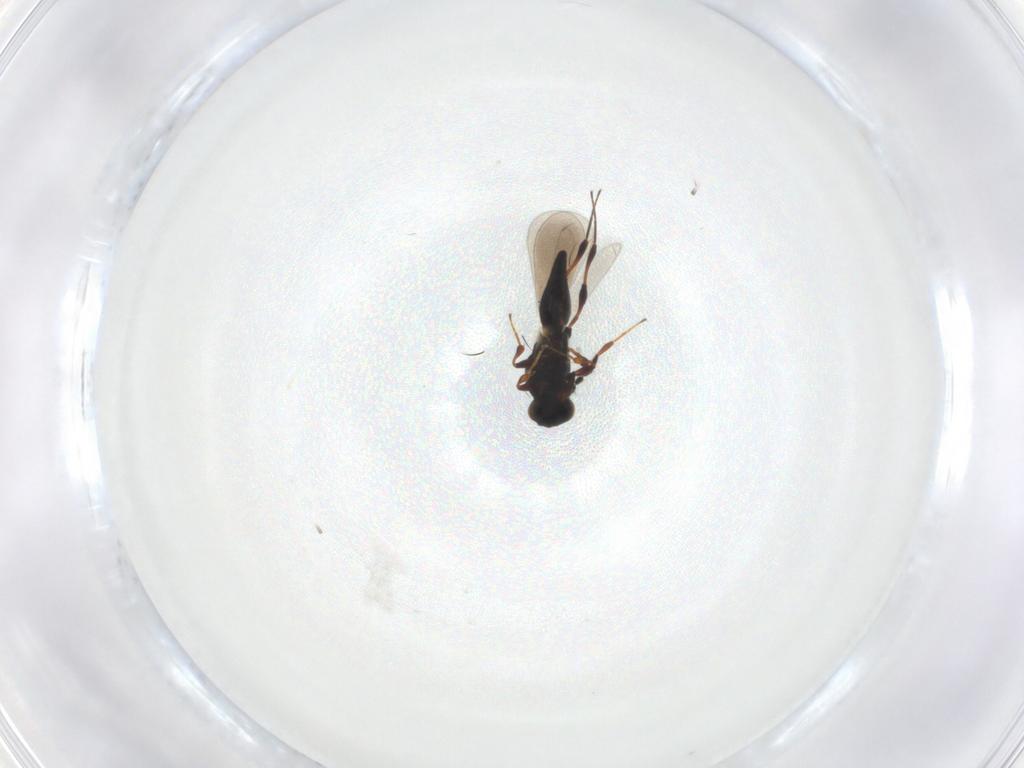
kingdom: Animalia
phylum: Arthropoda
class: Insecta
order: Hymenoptera
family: Platygastridae
